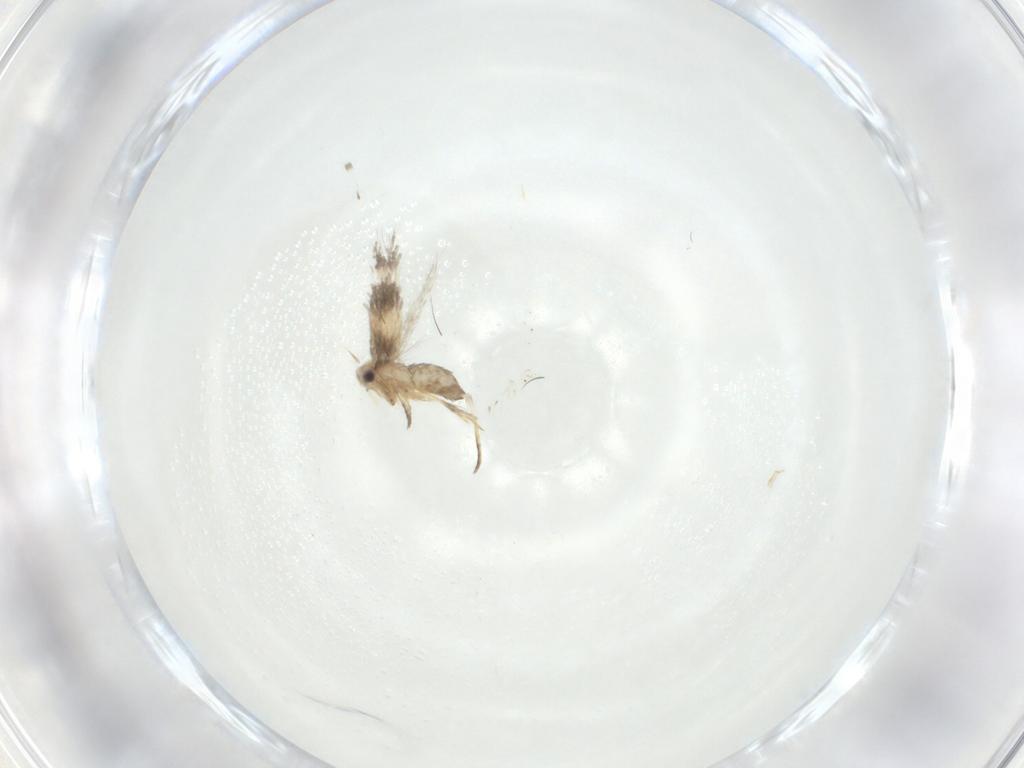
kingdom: Animalia
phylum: Arthropoda
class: Insecta
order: Lepidoptera
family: Nepticulidae
